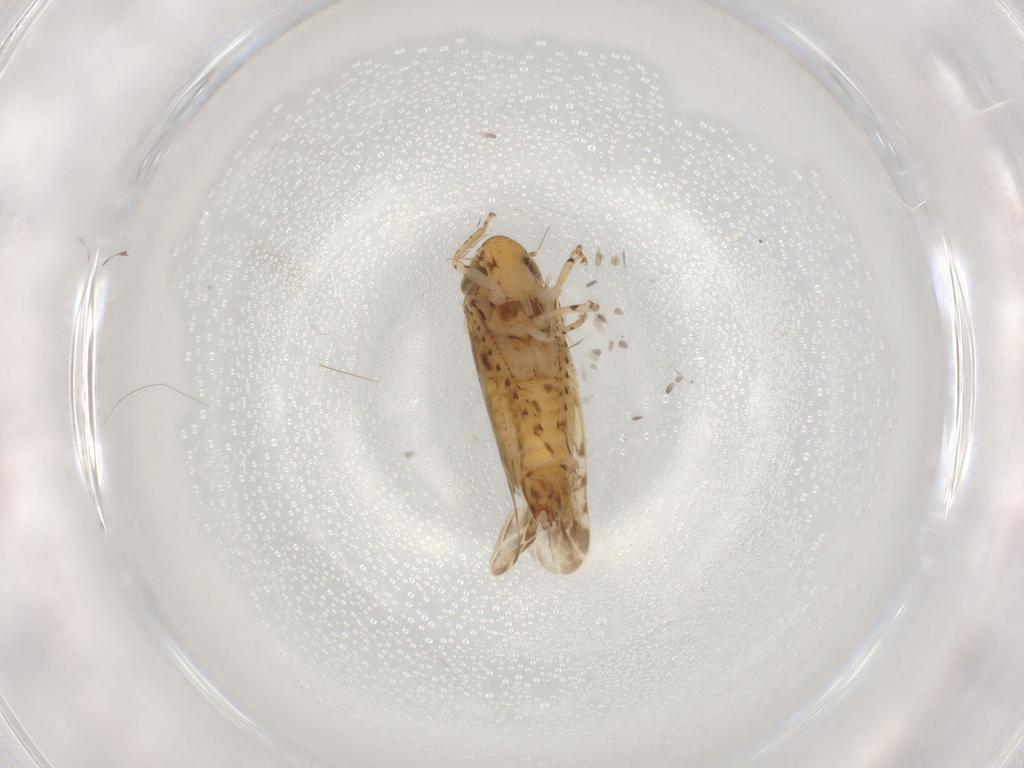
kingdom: Animalia
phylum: Arthropoda
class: Insecta
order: Hemiptera
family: Cicadellidae
